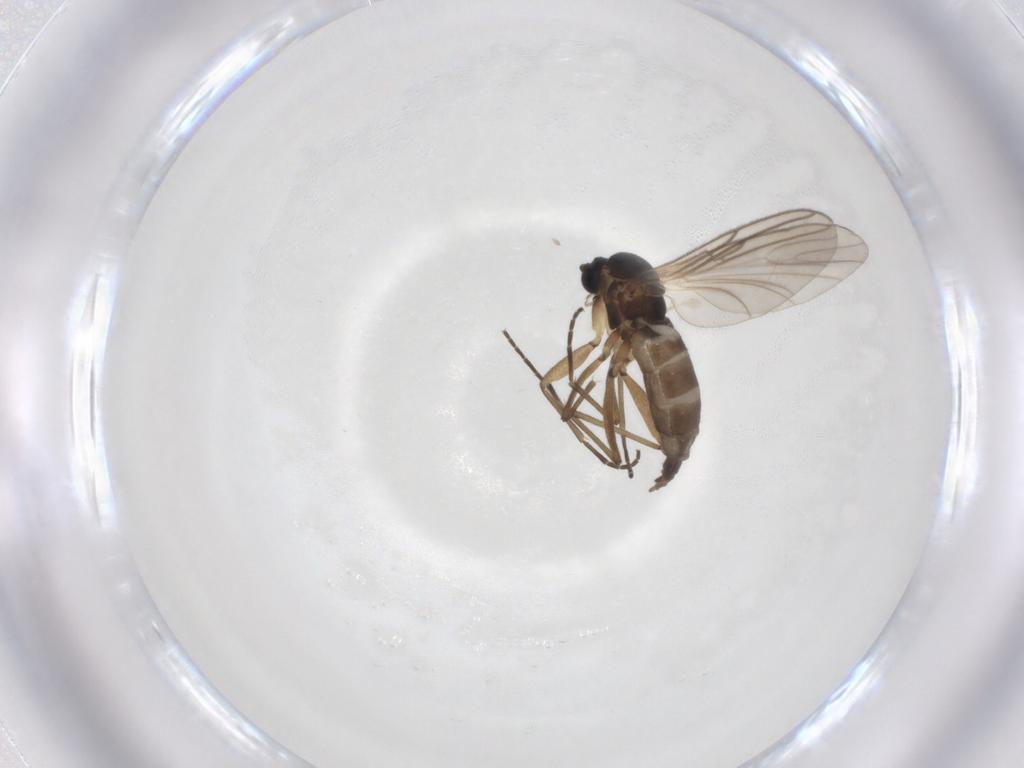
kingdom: Animalia
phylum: Arthropoda
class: Insecta
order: Diptera
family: Empididae
